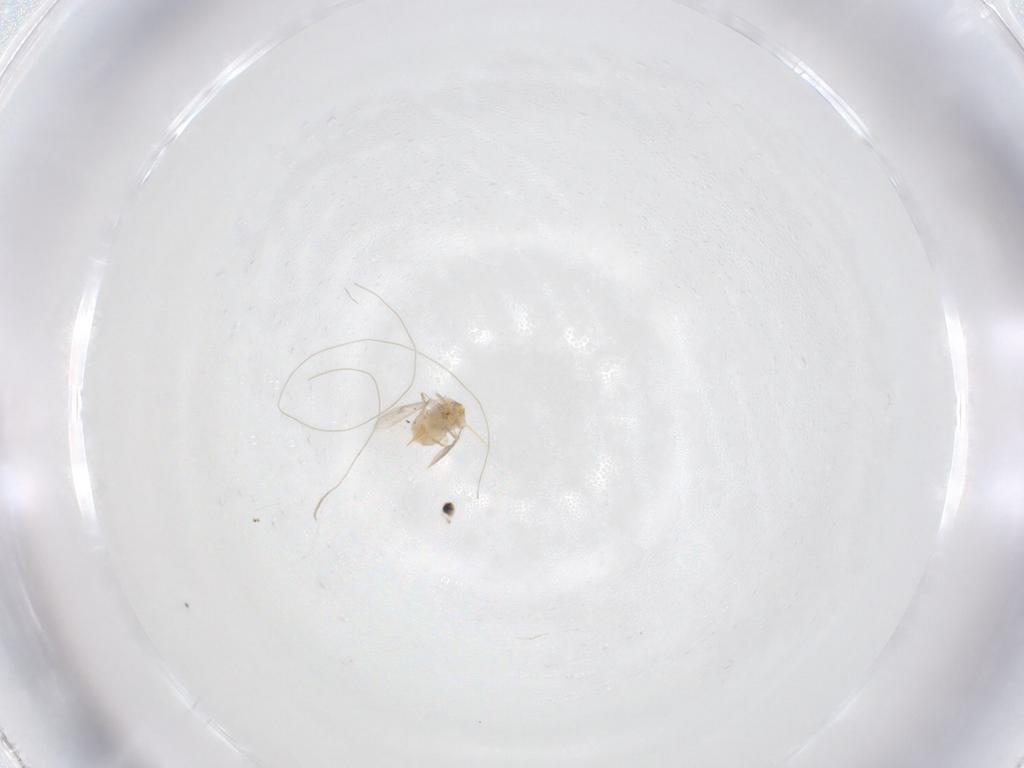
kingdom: Animalia
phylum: Arthropoda
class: Insecta
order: Hymenoptera
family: Aphelinidae
